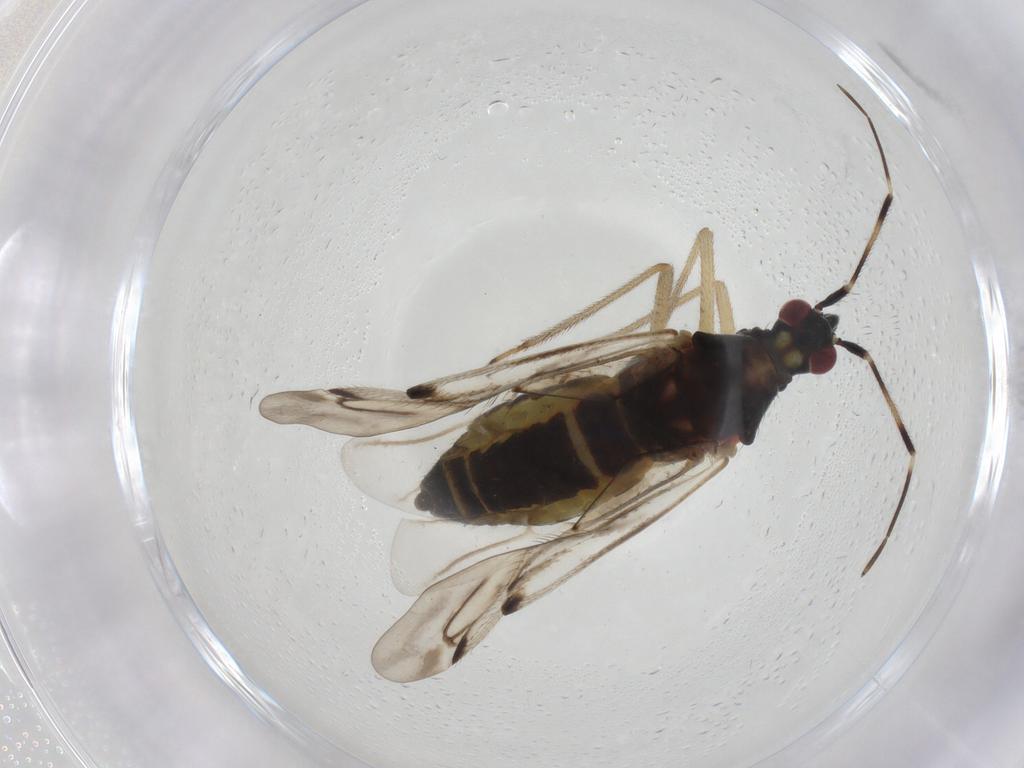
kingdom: Animalia
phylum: Arthropoda
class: Insecta
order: Hemiptera
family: Miridae
